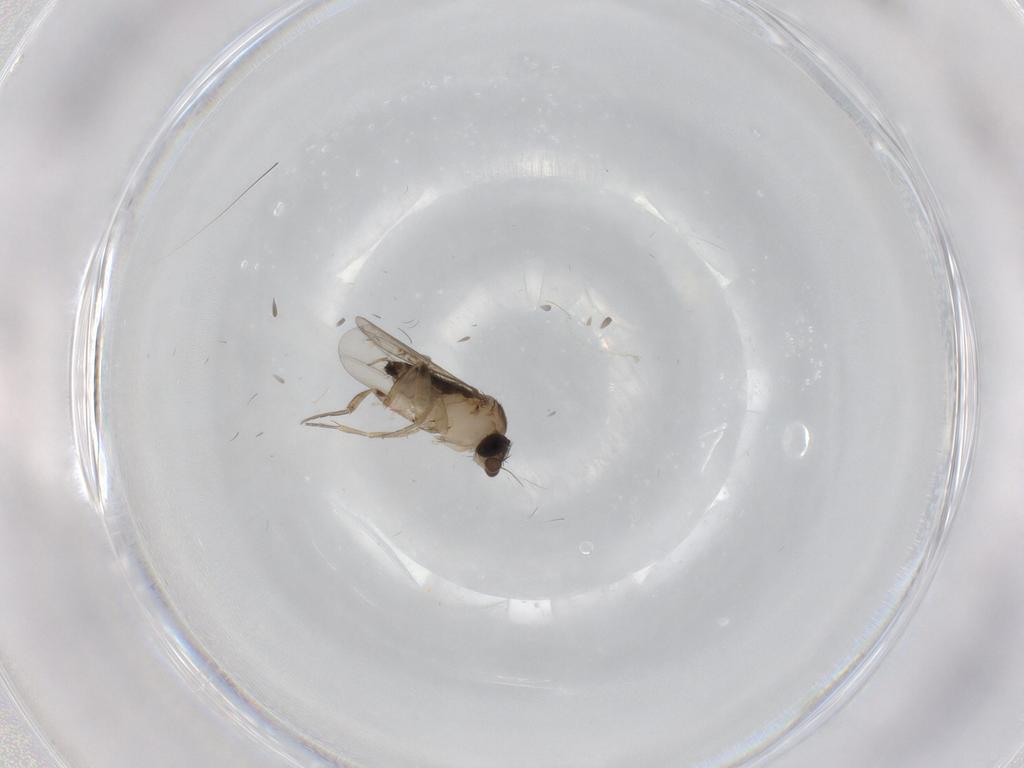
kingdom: Animalia
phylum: Arthropoda
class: Insecta
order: Diptera
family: Phoridae
